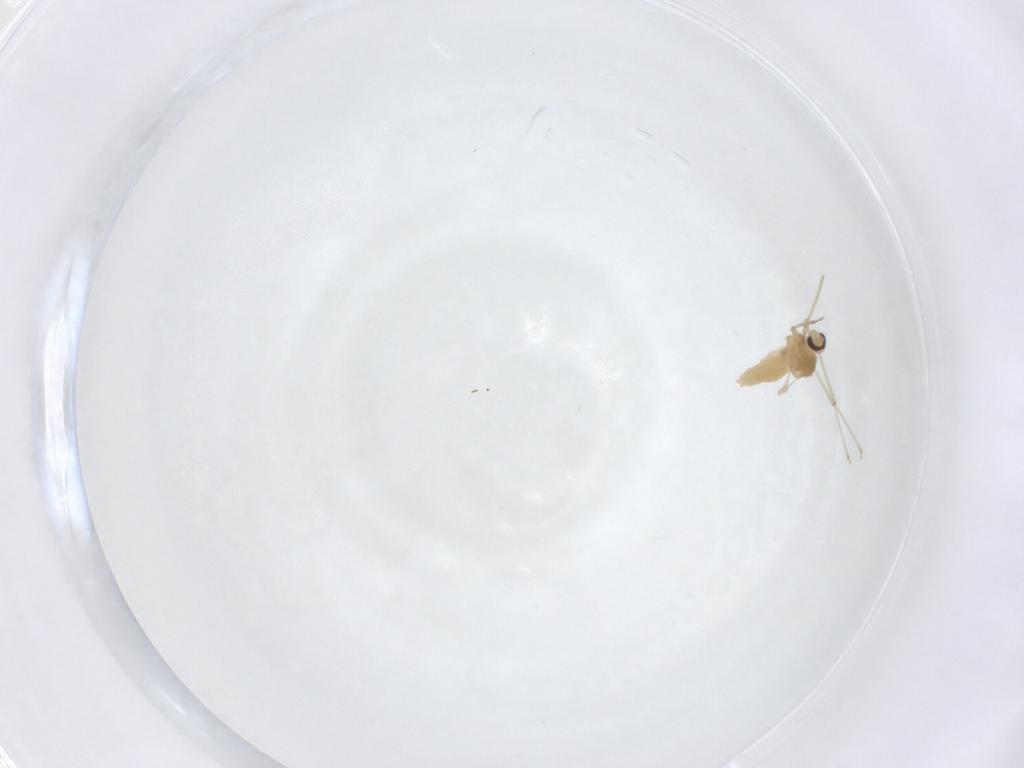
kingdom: Animalia
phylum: Arthropoda
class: Insecta
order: Diptera
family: Cecidomyiidae
